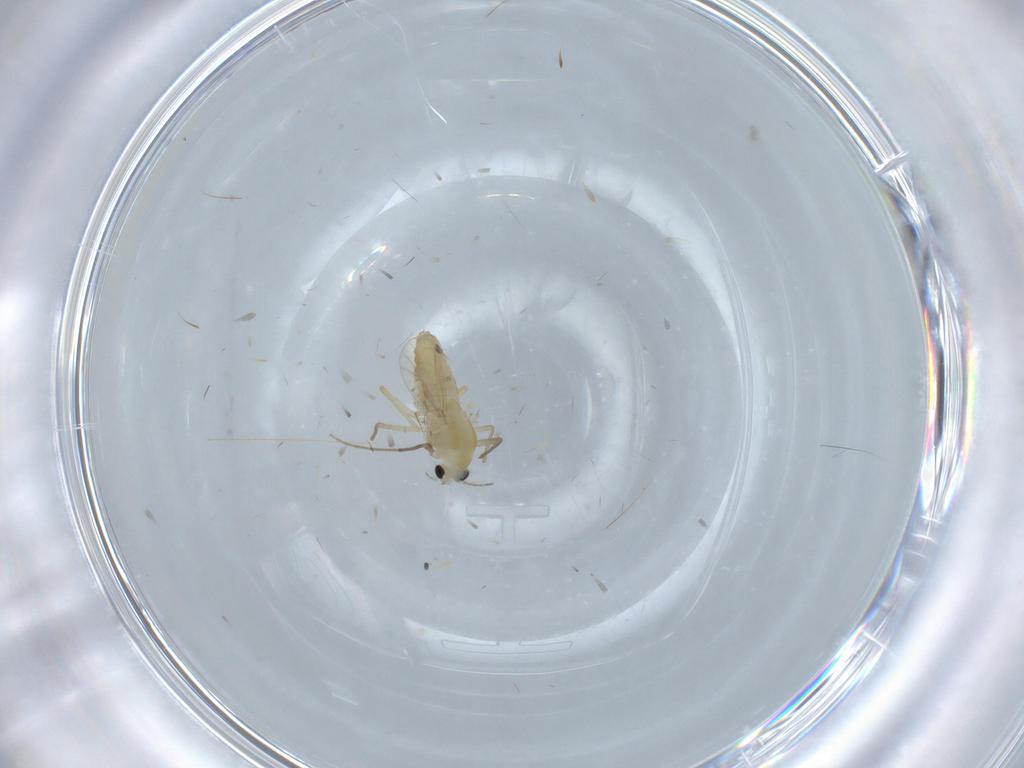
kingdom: Animalia
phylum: Arthropoda
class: Insecta
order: Diptera
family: Chironomidae
